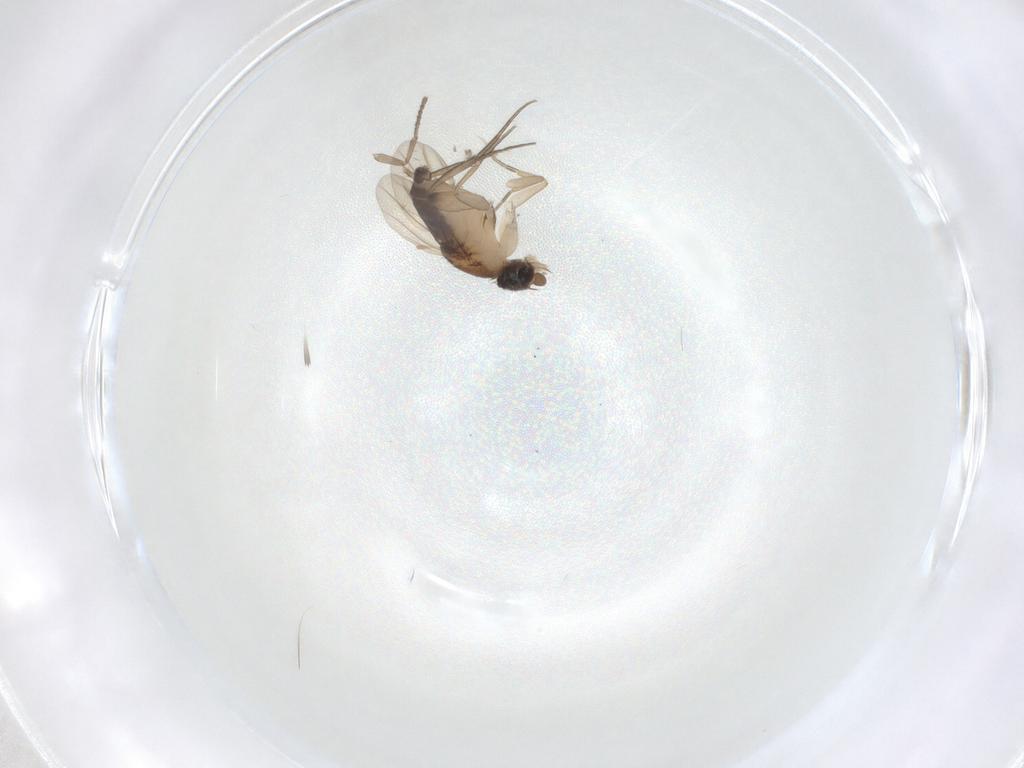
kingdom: Animalia
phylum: Arthropoda
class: Insecta
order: Diptera
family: Phoridae
